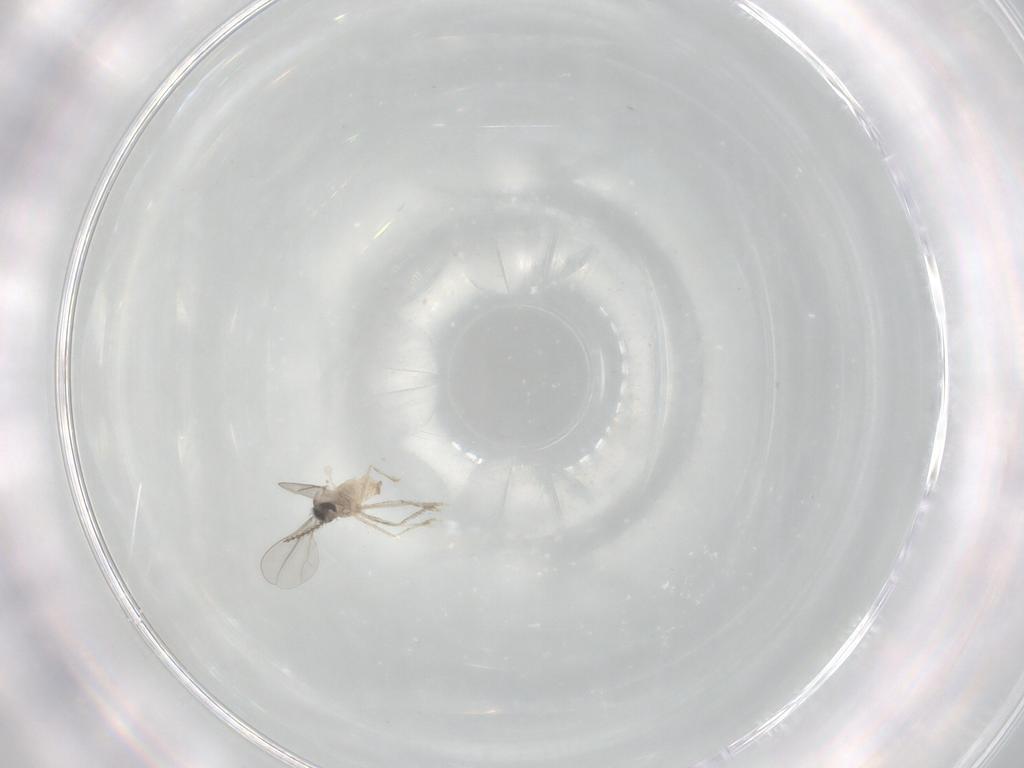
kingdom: Animalia
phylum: Arthropoda
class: Insecta
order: Diptera
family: Cecidomyiidae
